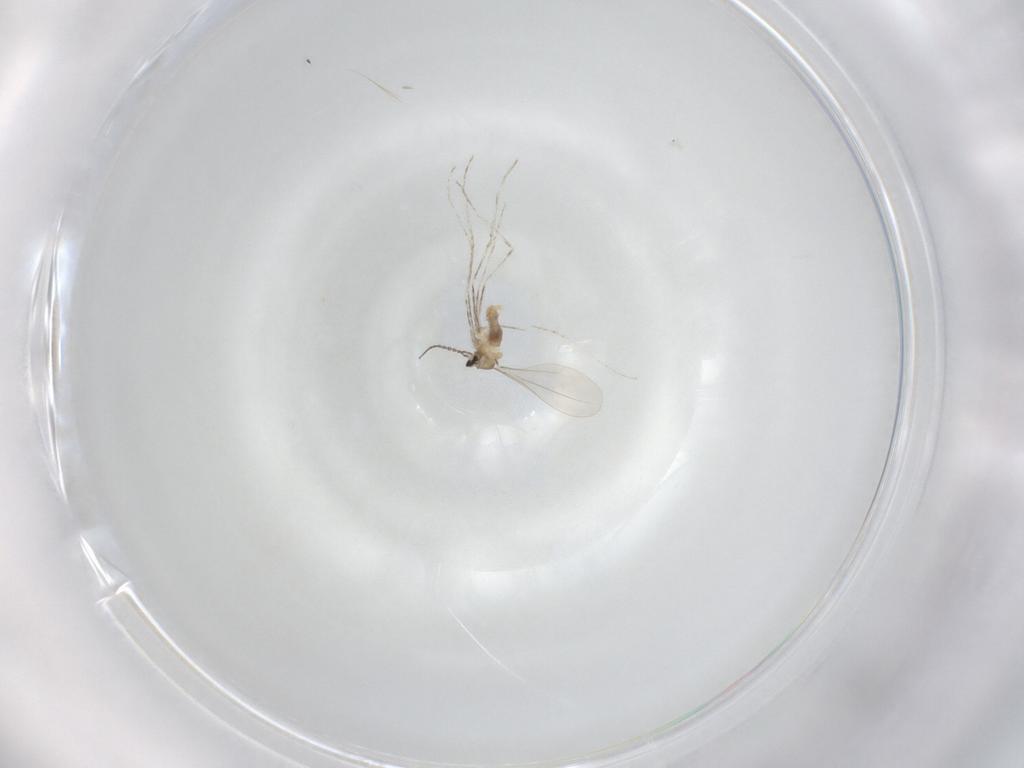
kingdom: Animalia
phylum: Arthropoda
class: Insecta
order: Diptera
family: Cecidomyiidae
